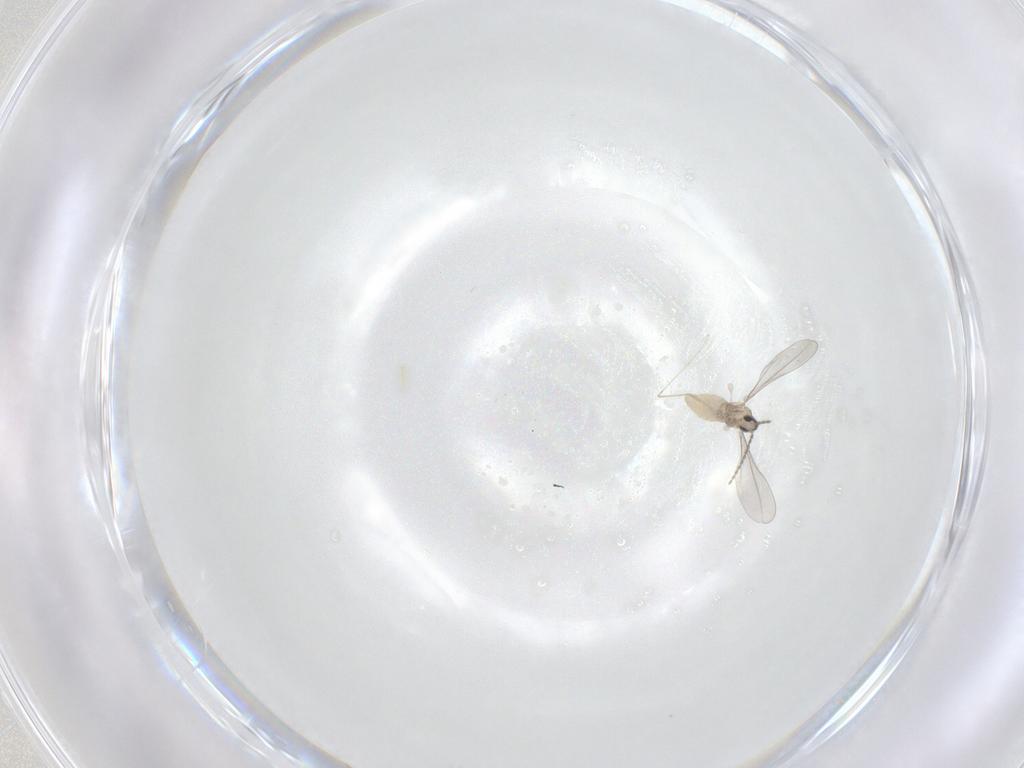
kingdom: Animalia
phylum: Arthropoda
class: Insecta
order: Diptera
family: Cecidomyiidae
